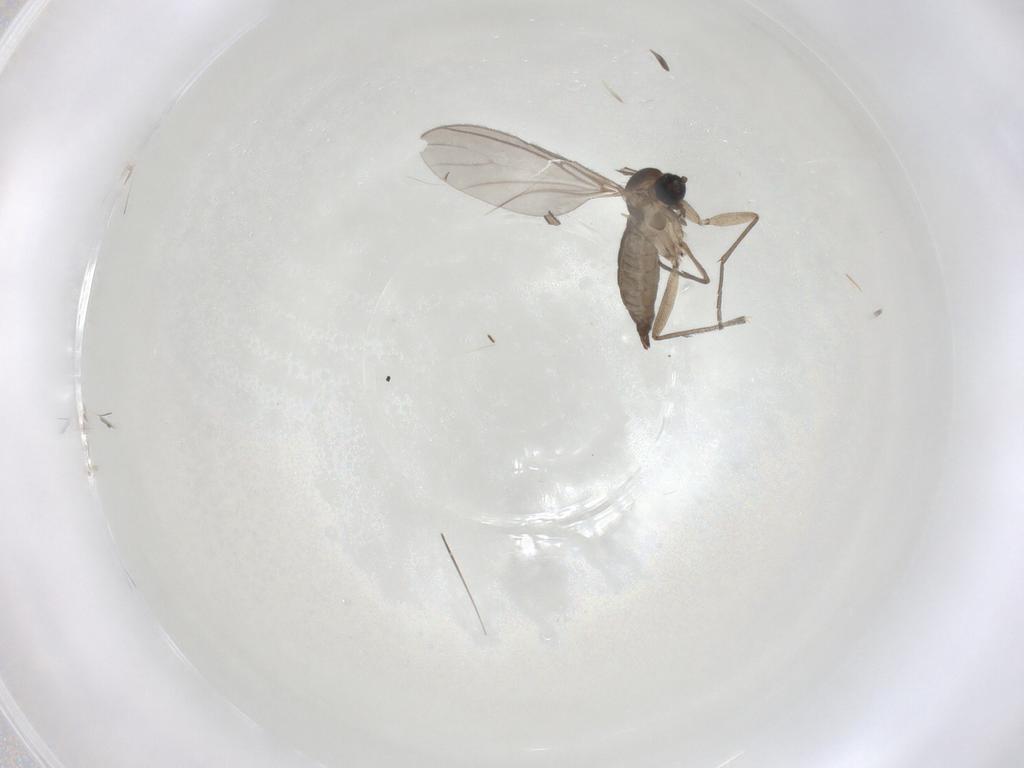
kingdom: Animalia
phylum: Arthropoda
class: Insecta
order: Diptera
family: Sciaridae
